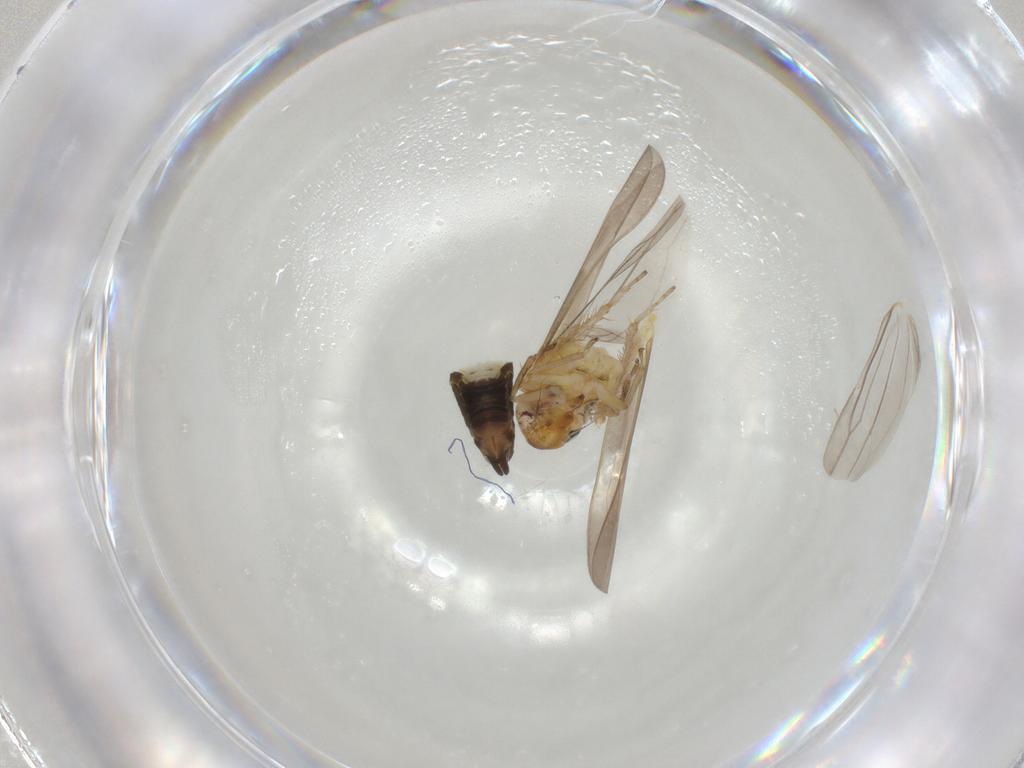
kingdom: Animalia
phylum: Arthropoda
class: Insecta
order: Hemiptera
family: Cicadellidae
